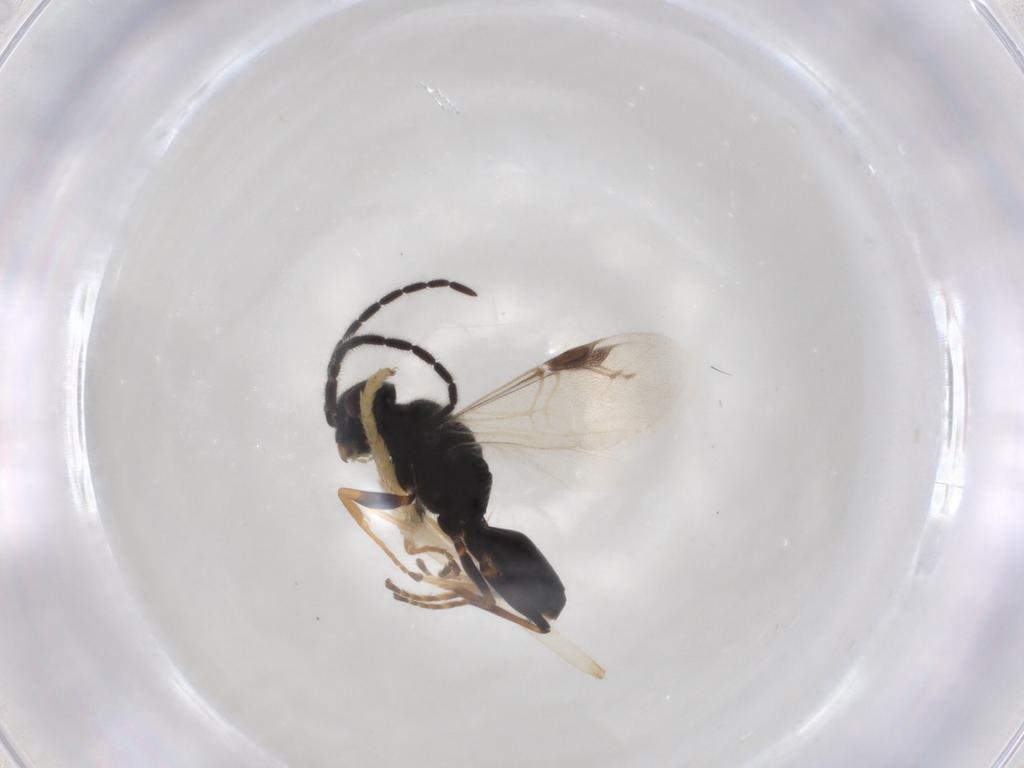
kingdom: Animalia
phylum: Arthropoda
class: Insecta
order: Hymenoptera
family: Dryinidae
